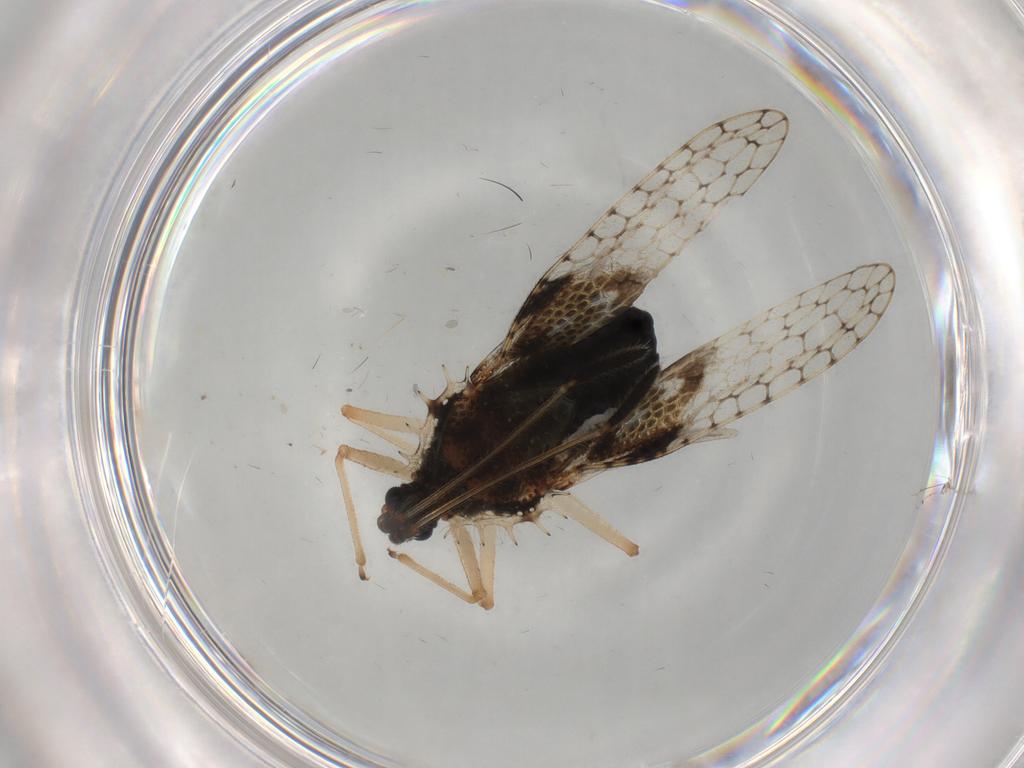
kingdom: Animalia
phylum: Arthropoda
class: Insecta
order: Hemiptera
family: Tingidae
